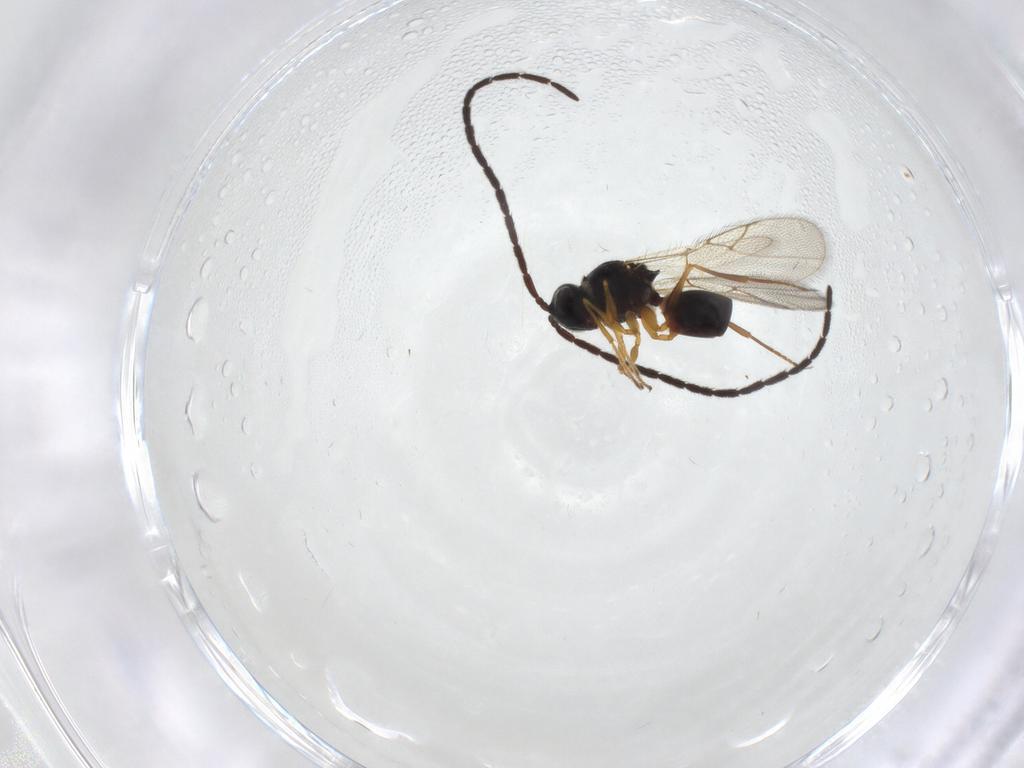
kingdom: Animalia
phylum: Arthropoda
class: Insecta
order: Hymenoptera
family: Figitidae
